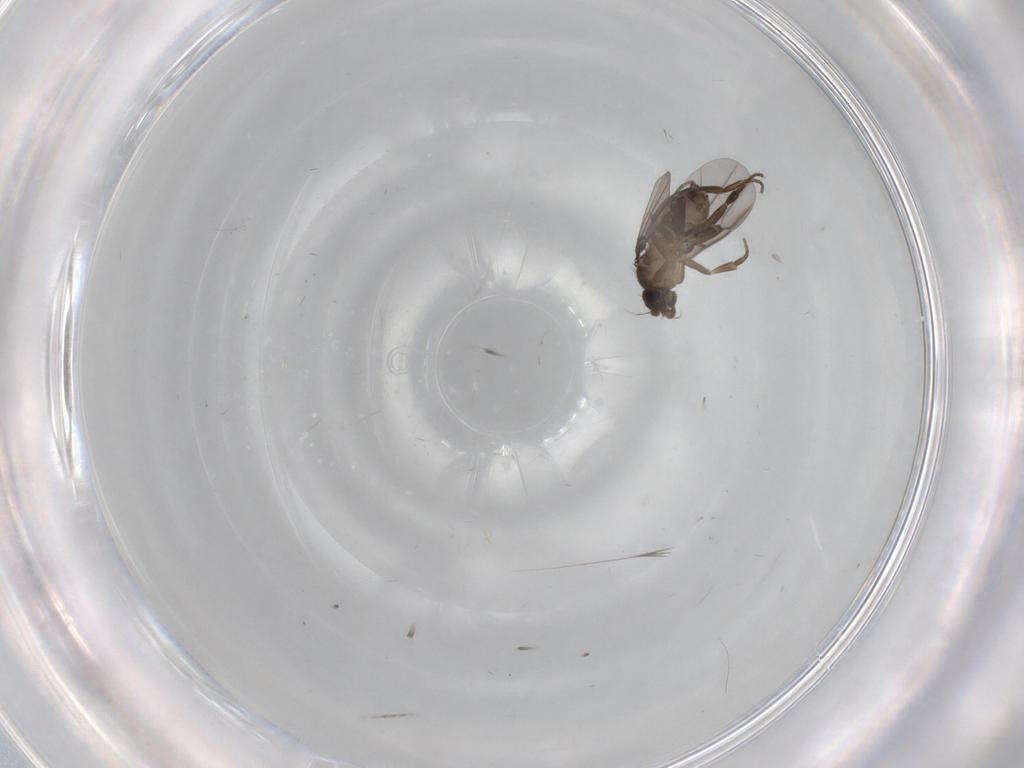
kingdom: Animalia
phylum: Arthropoda
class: Insecta
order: Diptera
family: Phoridae
